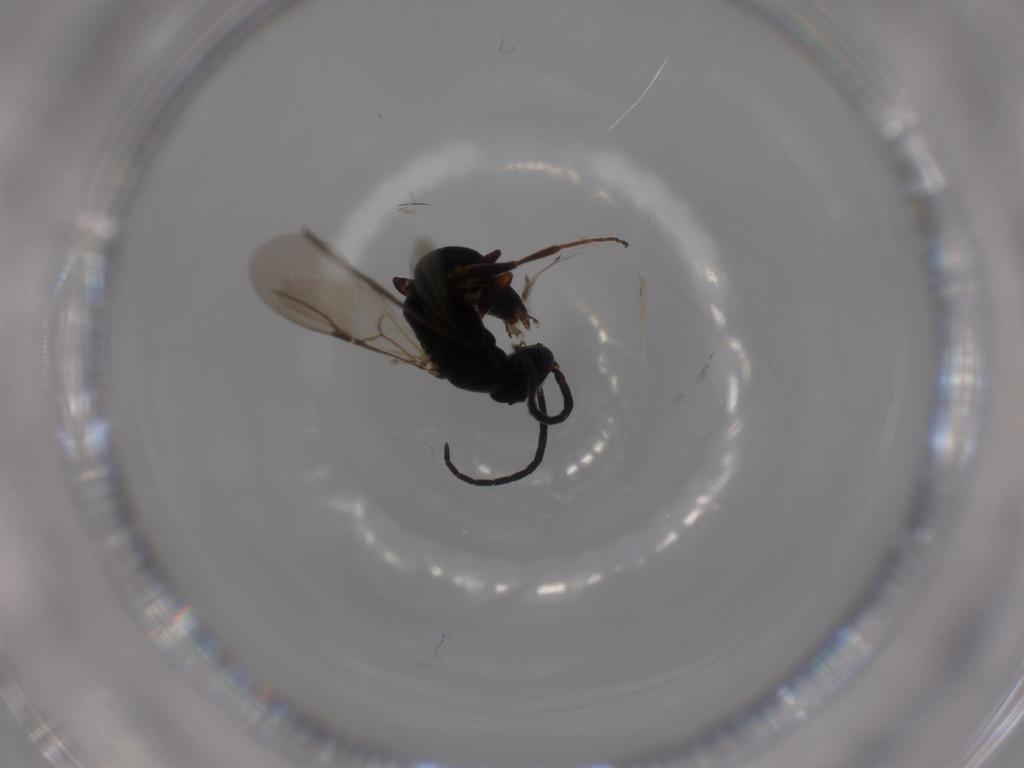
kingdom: Animalia
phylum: Arthropoda
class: Insecta
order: Hymenoptera
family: Bethylidae
